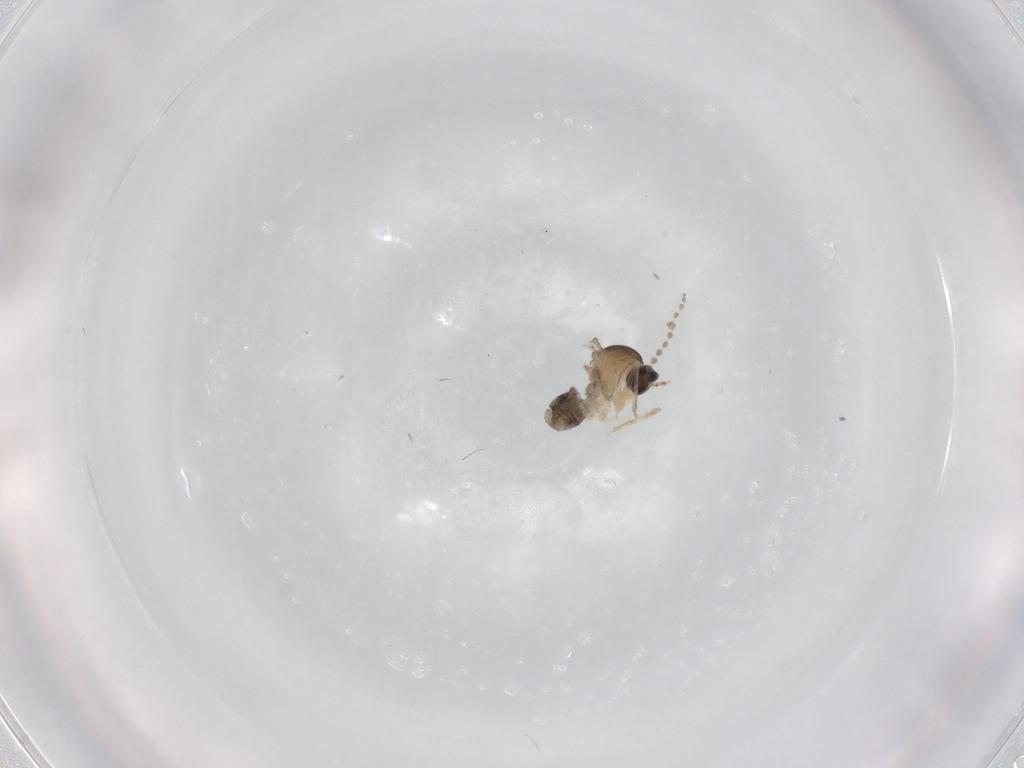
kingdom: Animalia
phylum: Arthropoda
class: Insecta
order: Diptera
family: Cecidomyiidae
